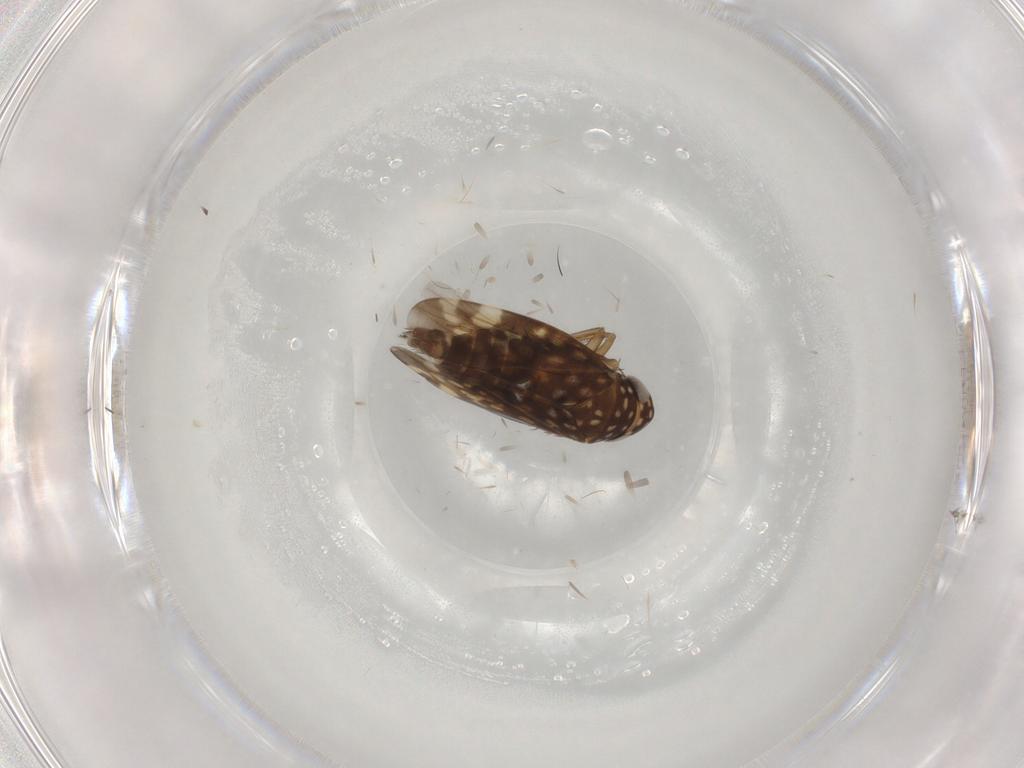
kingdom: Animalia
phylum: Arthropoda
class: Insecta
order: Hemiptera
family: Cicadellidae
